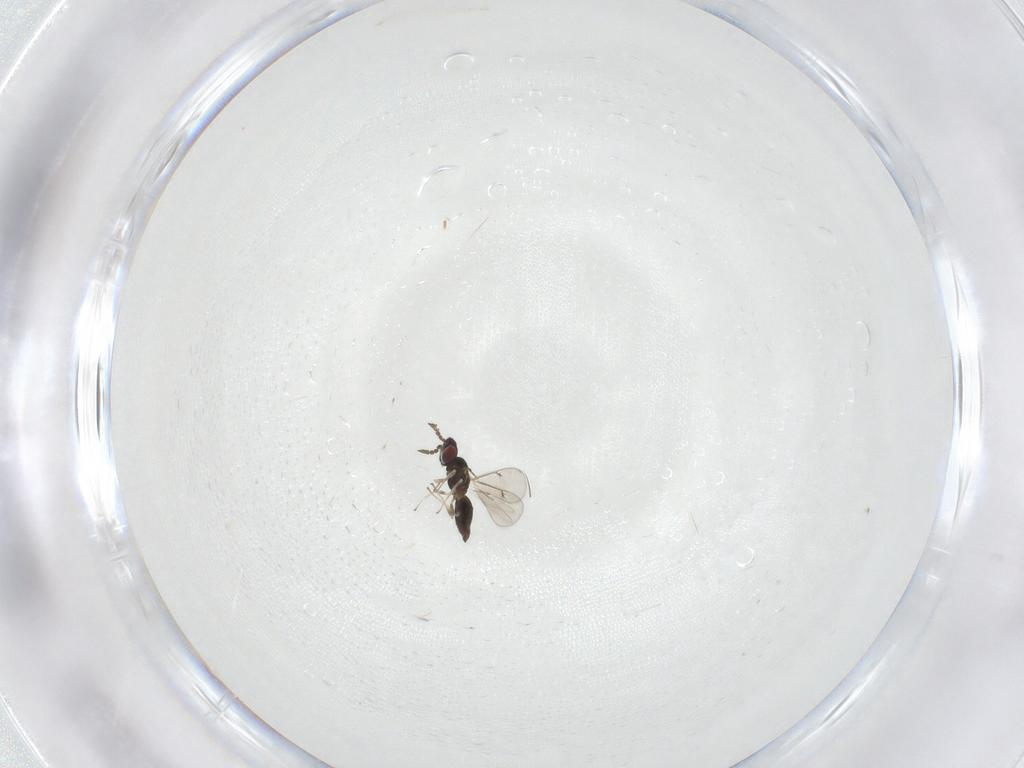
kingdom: Animalia
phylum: Arthropoda
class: Insecta
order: Hymenoptera
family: Eulophidae
